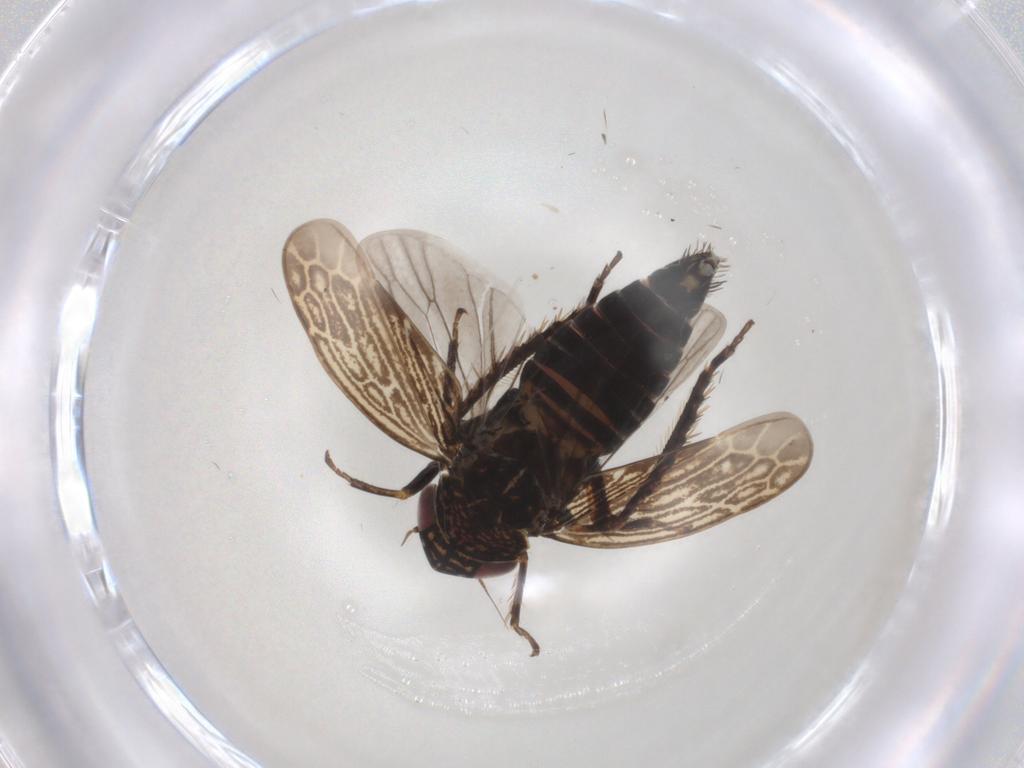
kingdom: Animalia
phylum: Arthropoda
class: Insecta
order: Hemiptera
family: Cicadellidae
